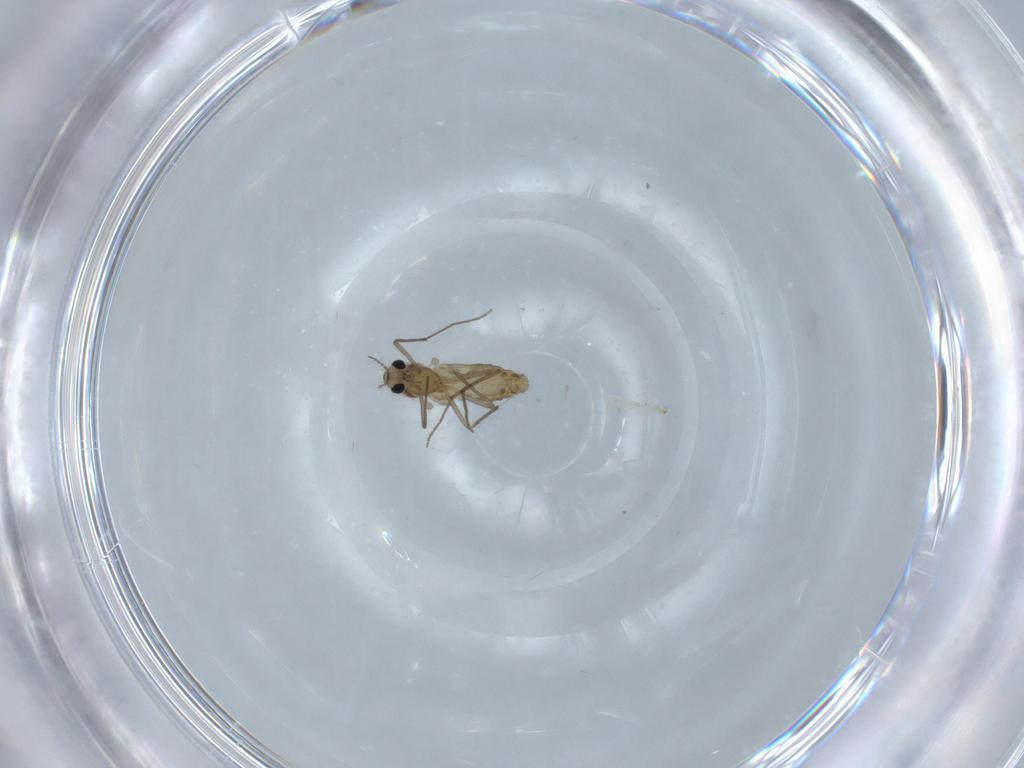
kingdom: Animalia
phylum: Arthropoda
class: Insecta
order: Diptera
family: Chironomidae
